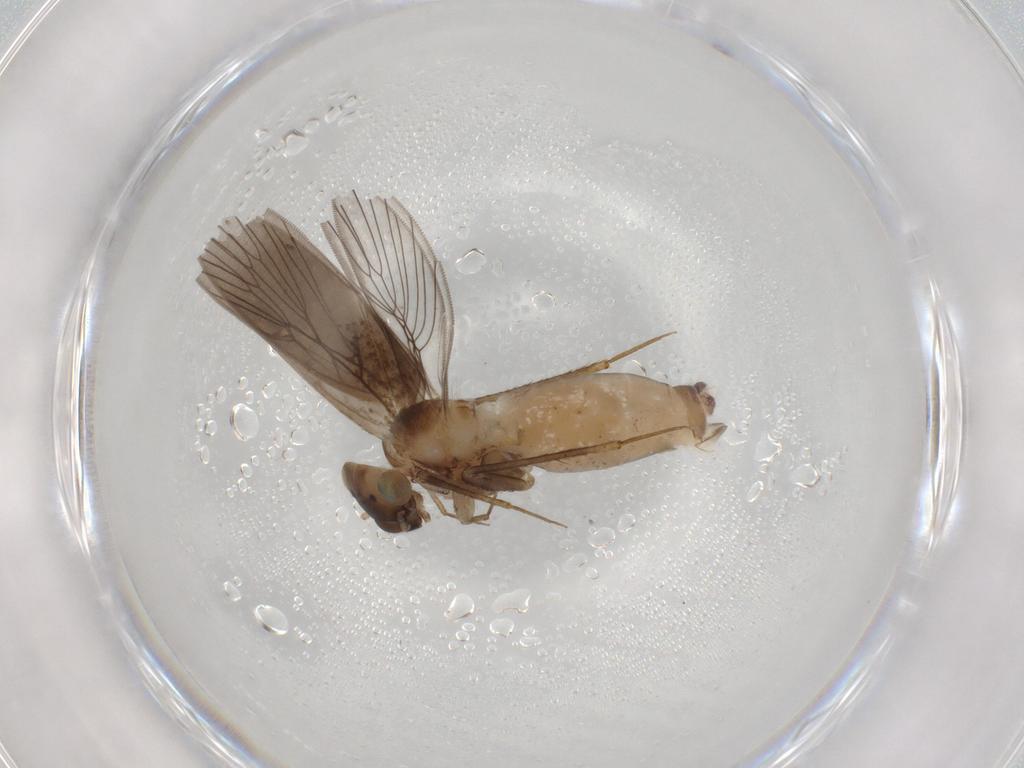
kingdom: Animalia
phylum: Arthropoda
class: Insecta
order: Psocodea
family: Lepidopsocidae
